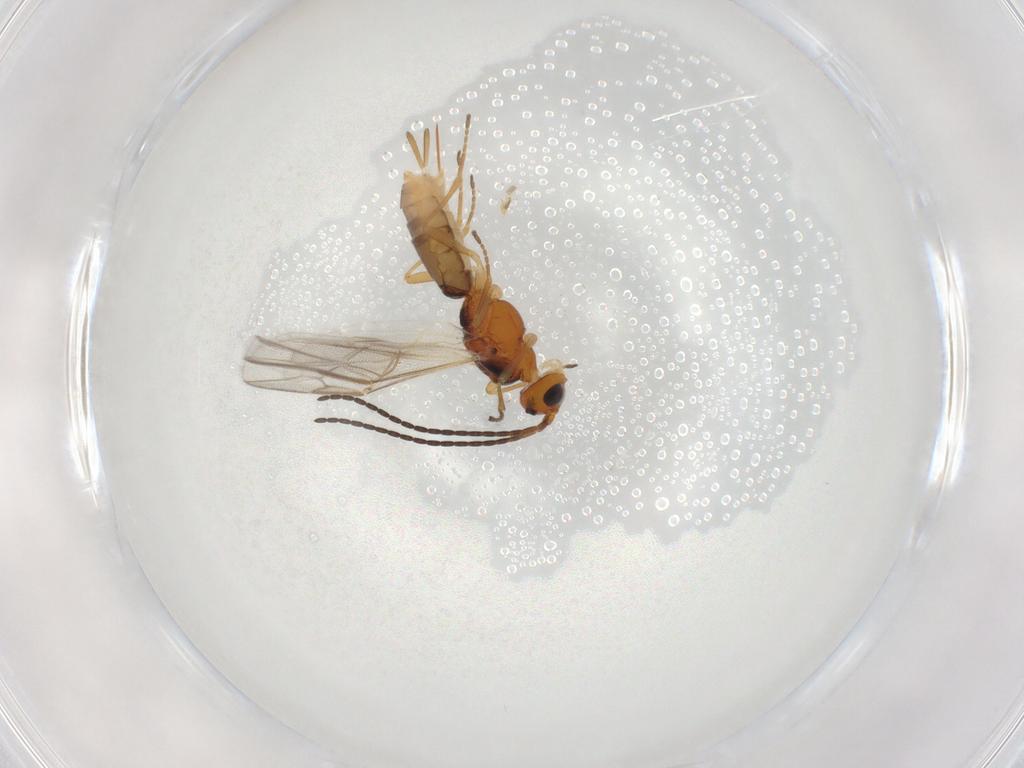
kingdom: Animalia
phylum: Arthropoda
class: Insecta
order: Hymenoptera
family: Braconidae
